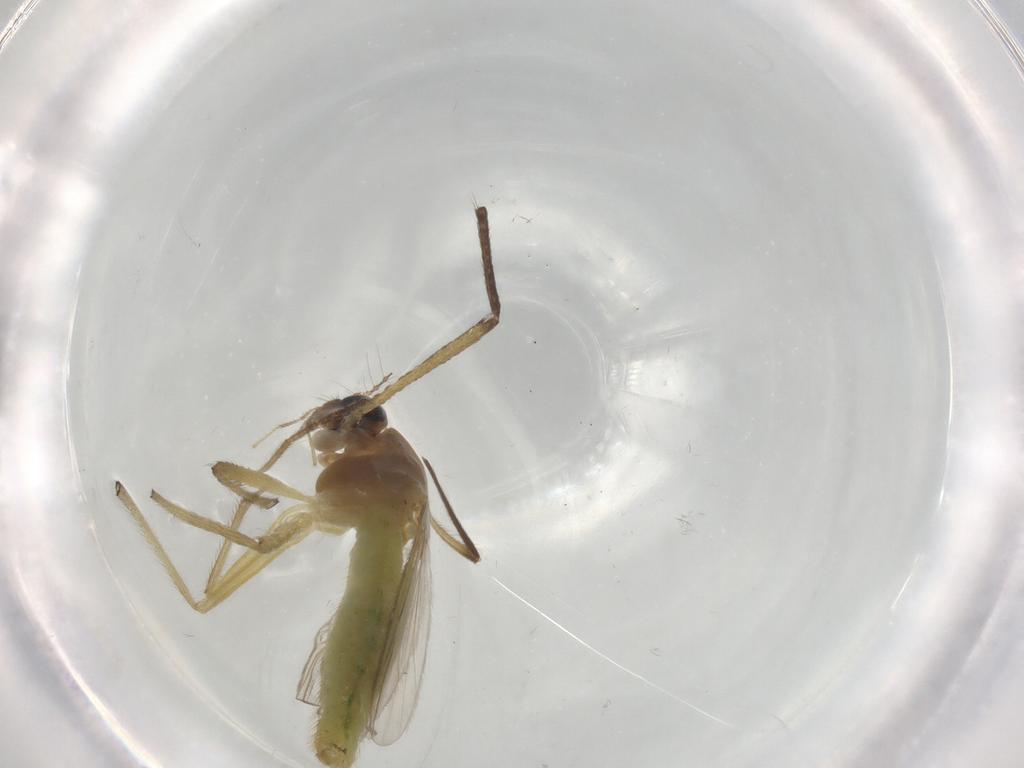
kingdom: Animalia
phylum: Arthropoda
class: Insecta
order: Diptera
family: Chironomidae
